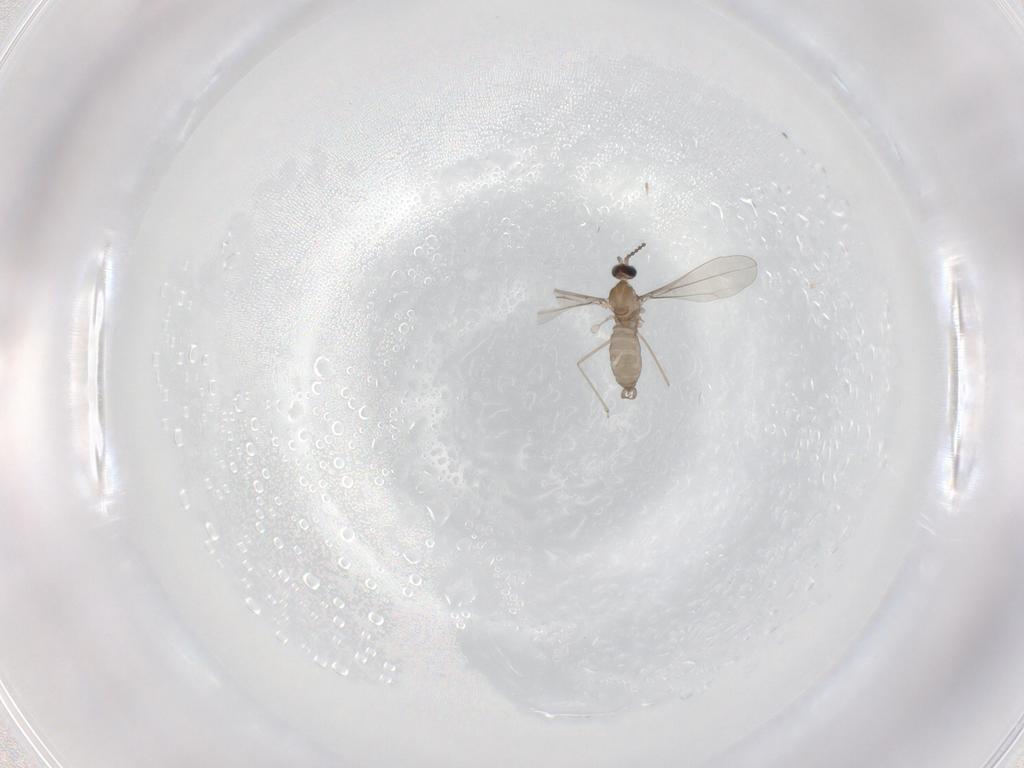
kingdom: Animalia
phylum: Arthropoda
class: Insecta
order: Diptera
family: Cecidomyiidae
